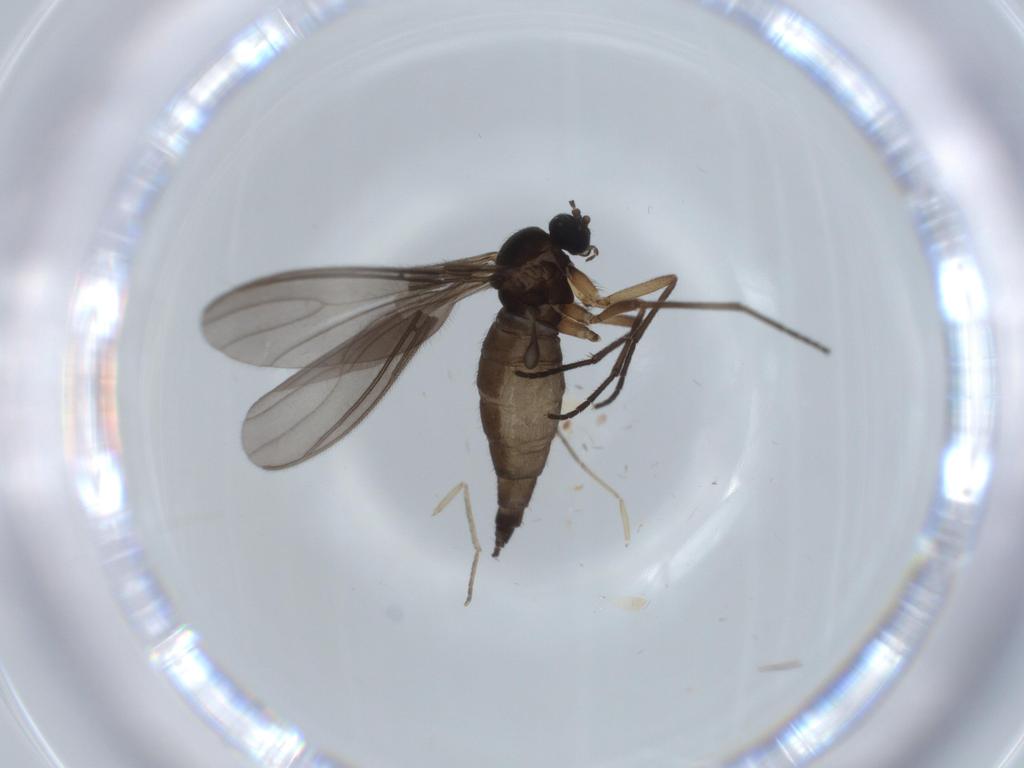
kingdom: Animalia
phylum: Arthropoda
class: Insecta
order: Diptera
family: Sciaridae
